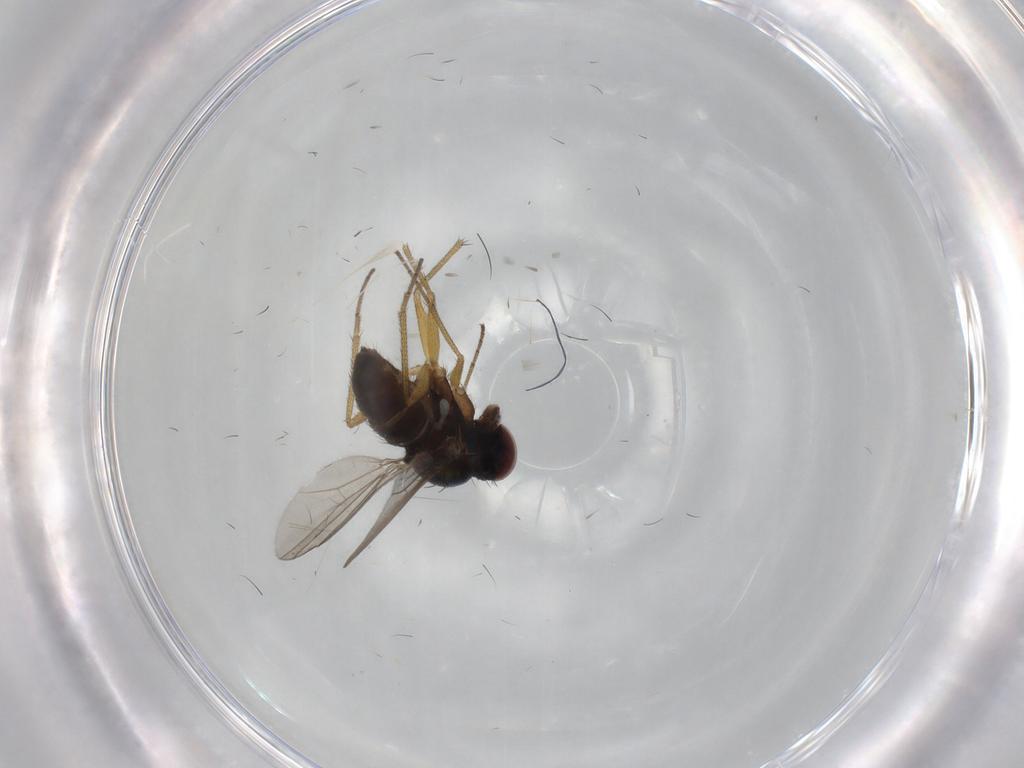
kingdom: Animalia
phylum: Arthropoda
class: Insecta
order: Diptera
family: Dolichopodidae
